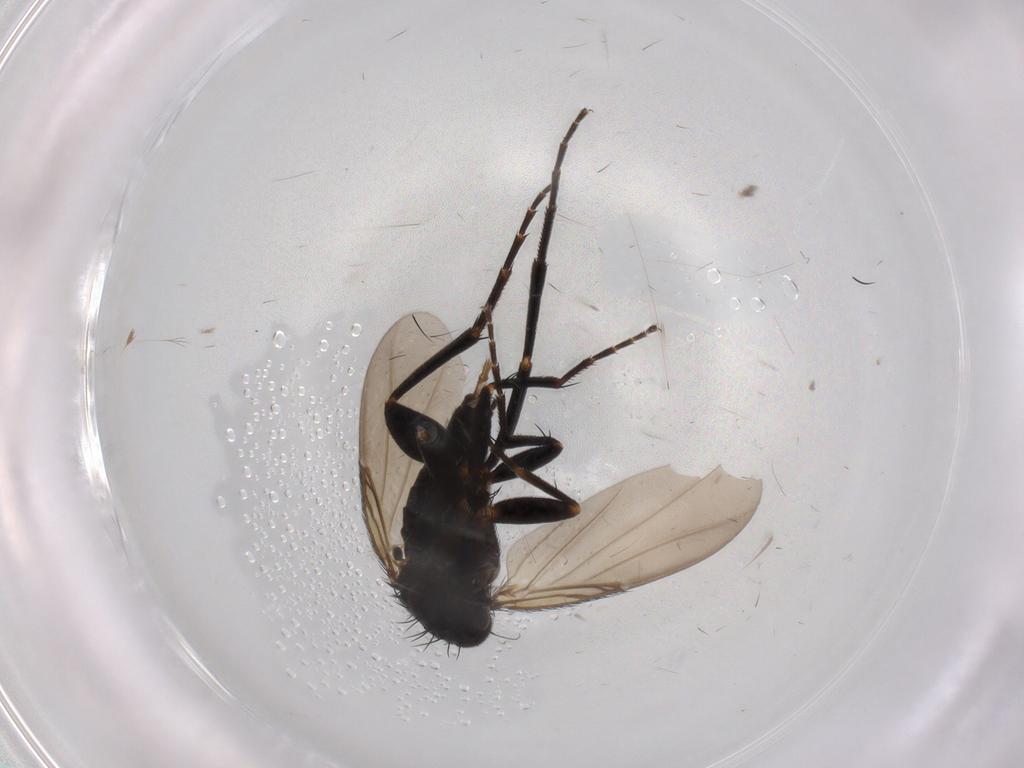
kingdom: Animalia
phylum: Arthropoda
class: Insecta
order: Diptera
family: Phoridae
